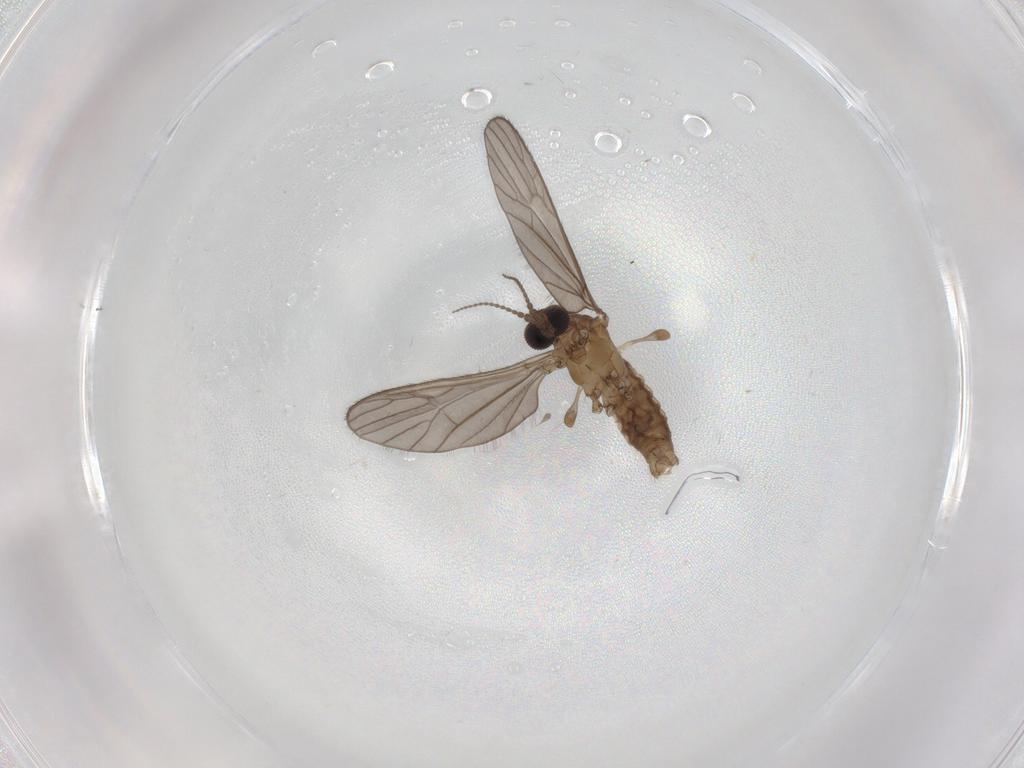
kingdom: Animalia
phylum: Arthropoda
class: Insecta
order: Diptera
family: Limoniidae
